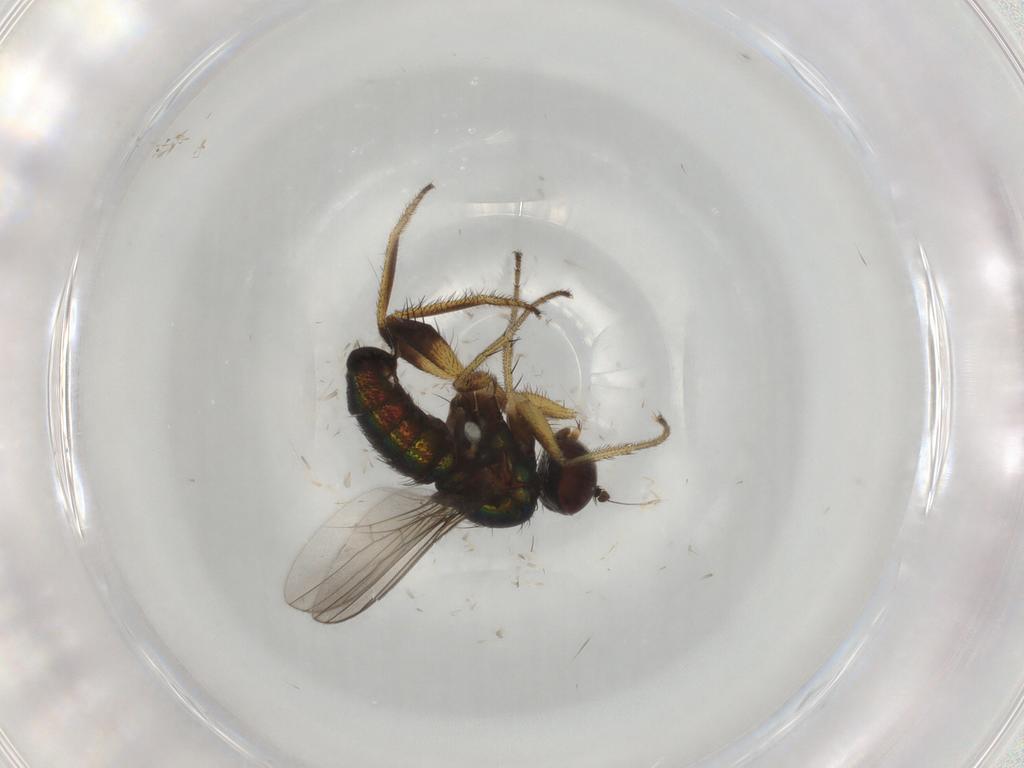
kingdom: Animalia
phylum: Arthropoda
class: Insecta
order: Diptera
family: Dolichopodidae
